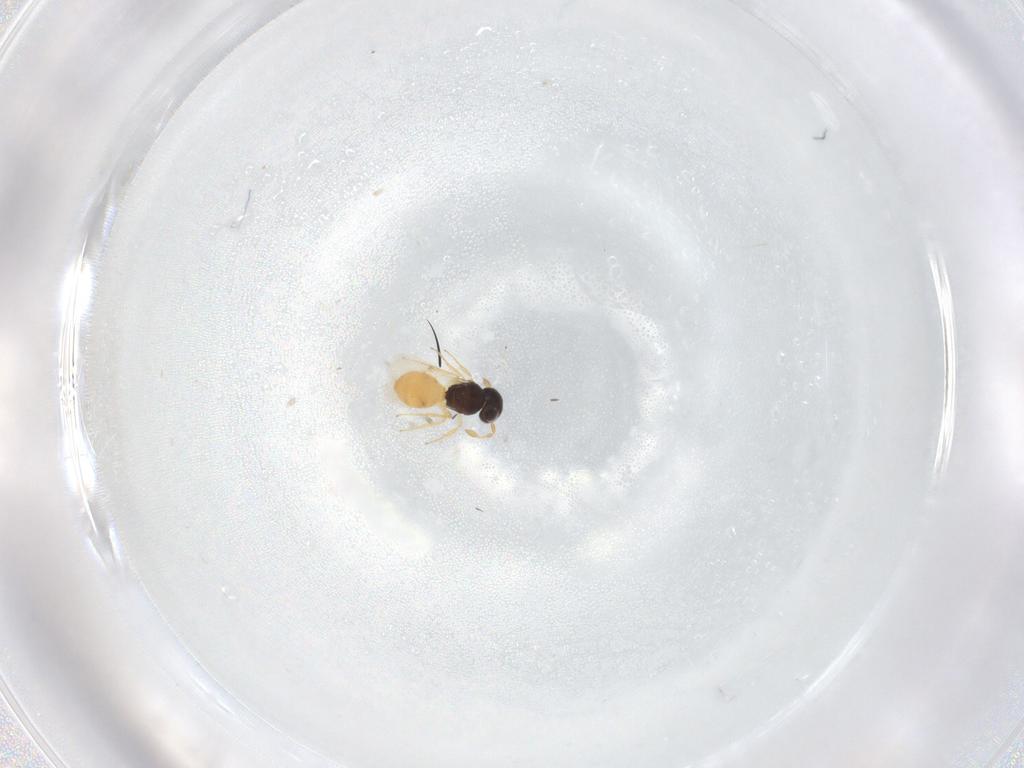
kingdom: Animalia
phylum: Arthropoda
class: Insecta
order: Hymenoptera
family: Scelionidae
